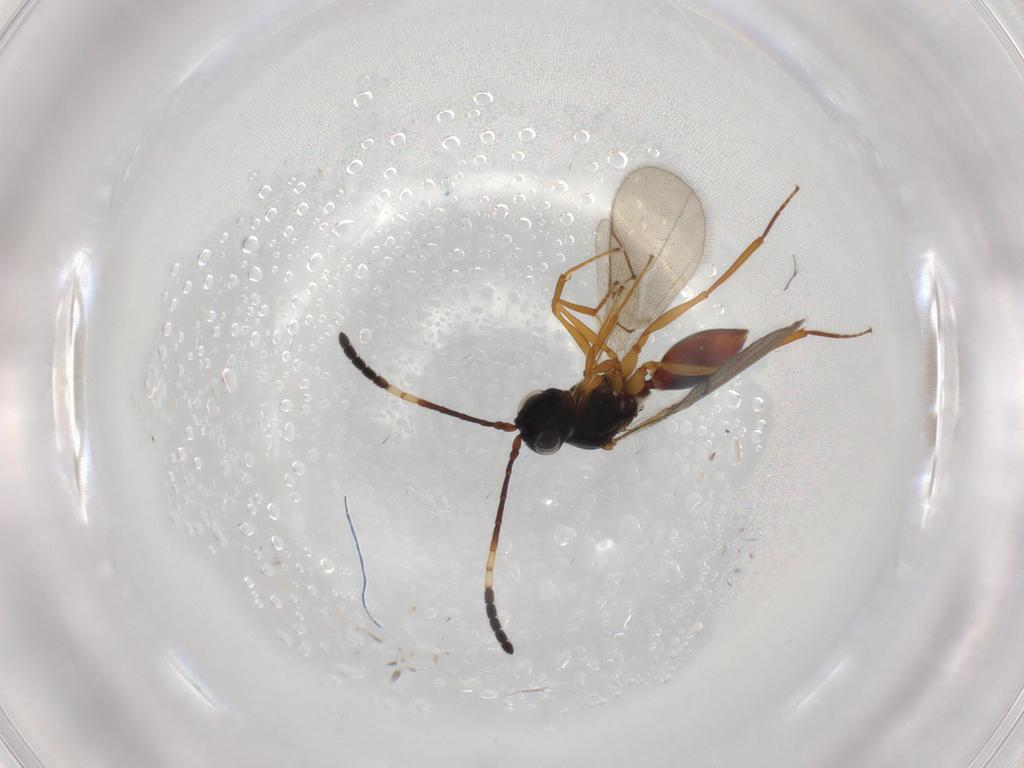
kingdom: Animalia
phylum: Arthropoda
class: Insecta
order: Hymenoptera
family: Figitidae
